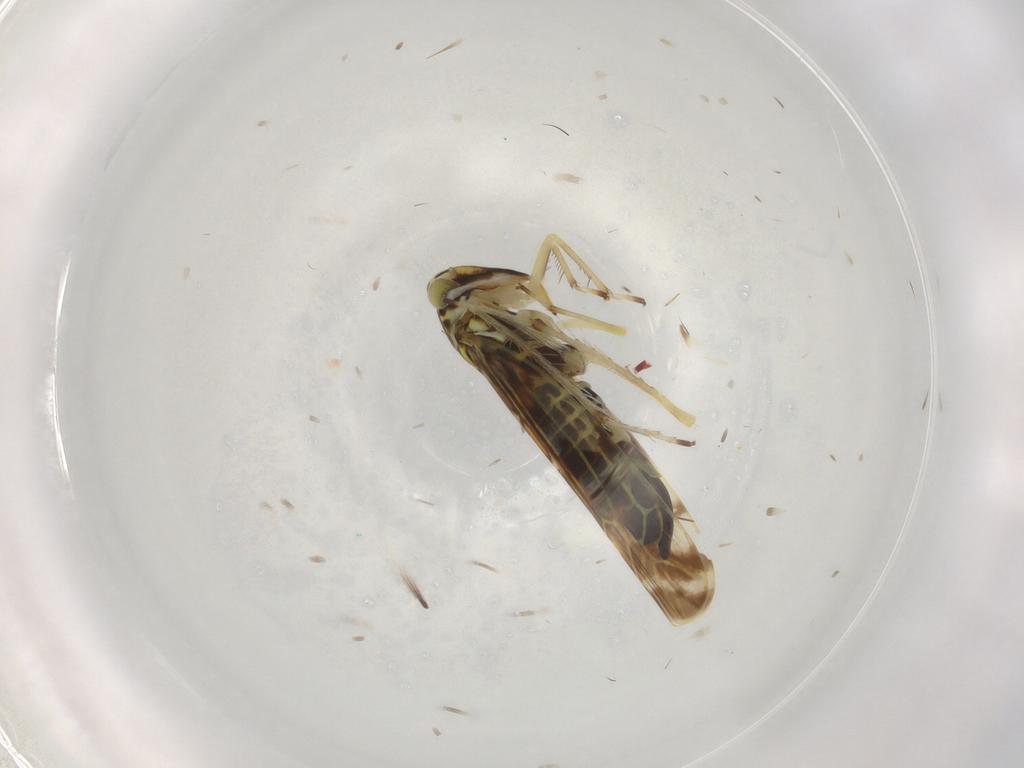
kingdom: Animalia
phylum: Arthropoda
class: Insecta
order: Hemiptera
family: Cicadellidae
